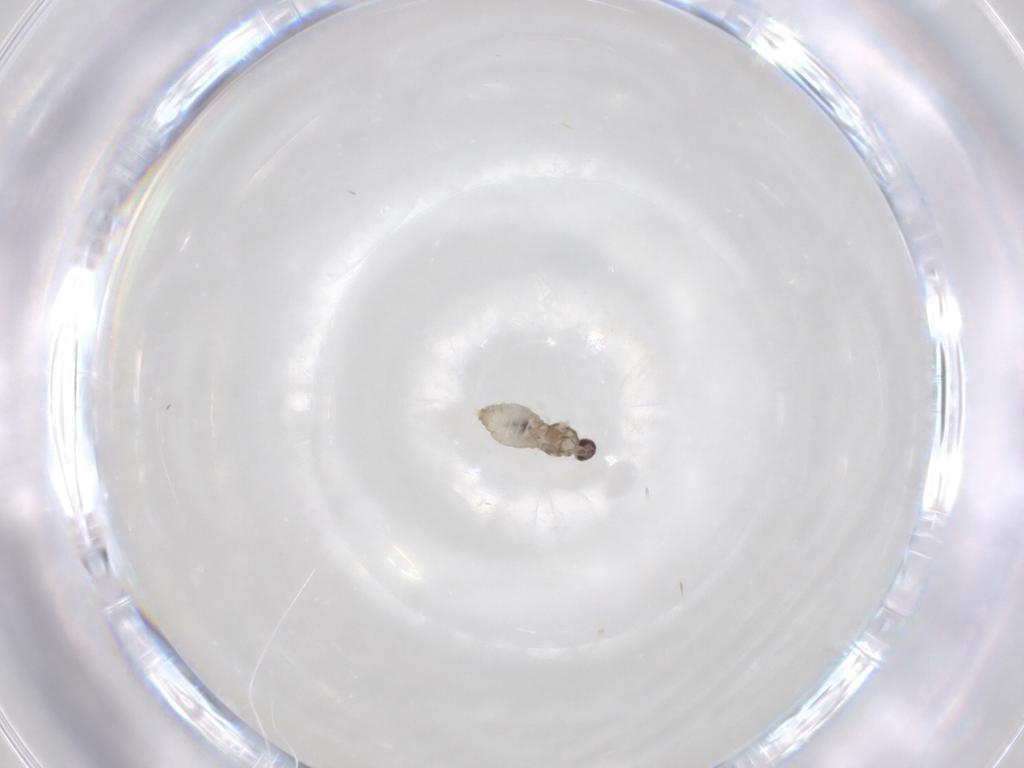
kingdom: Animalia
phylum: Arthropoda
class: Insecta
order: Diptera
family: Cecidomyiidae
